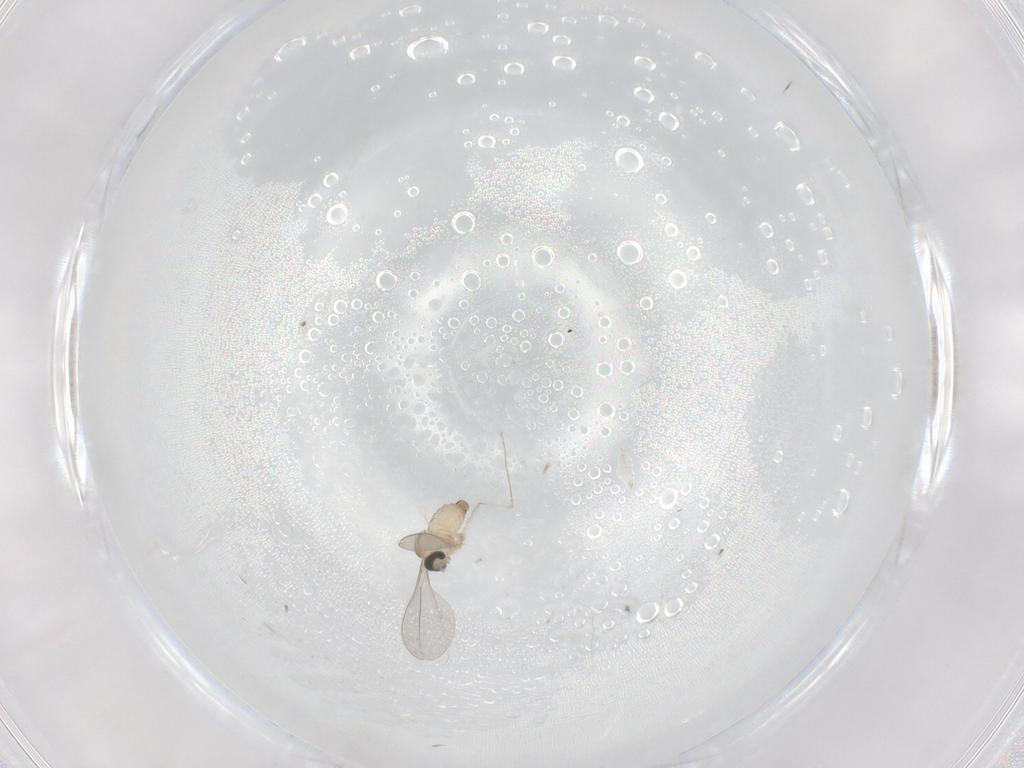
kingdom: Animalia
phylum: Arthropoda
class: Insecta
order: Diptera
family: Cecidomyiidae
